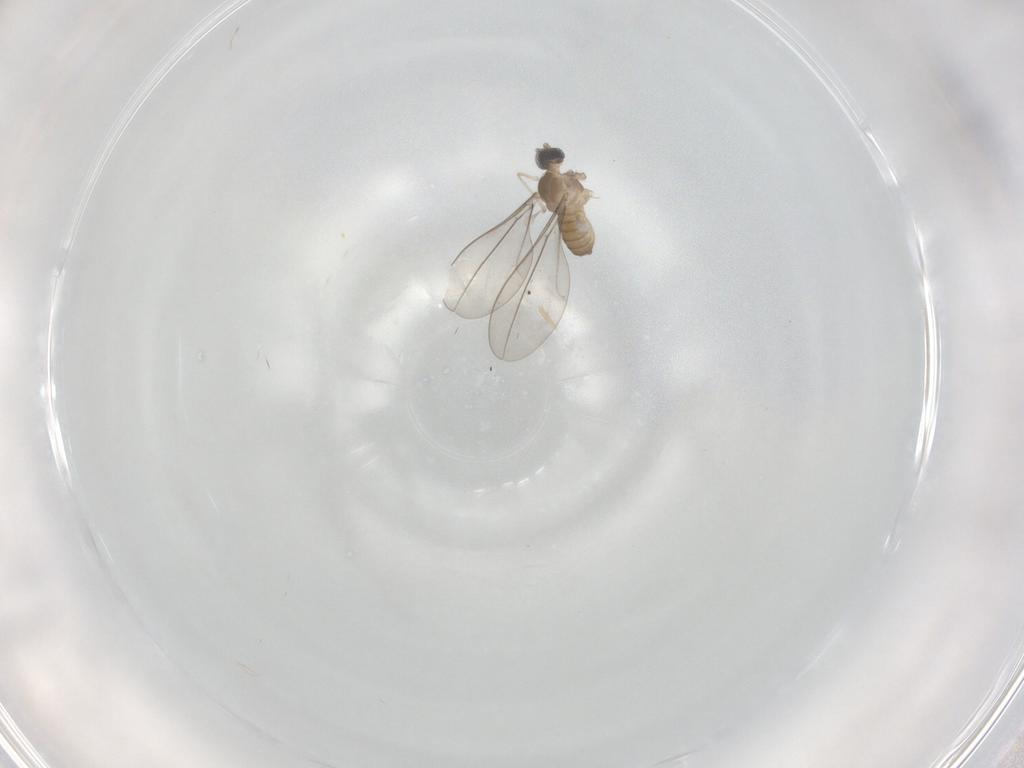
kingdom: Animalia
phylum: Arthropoda
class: Insecta
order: Diptera
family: Cecidomyiidae
